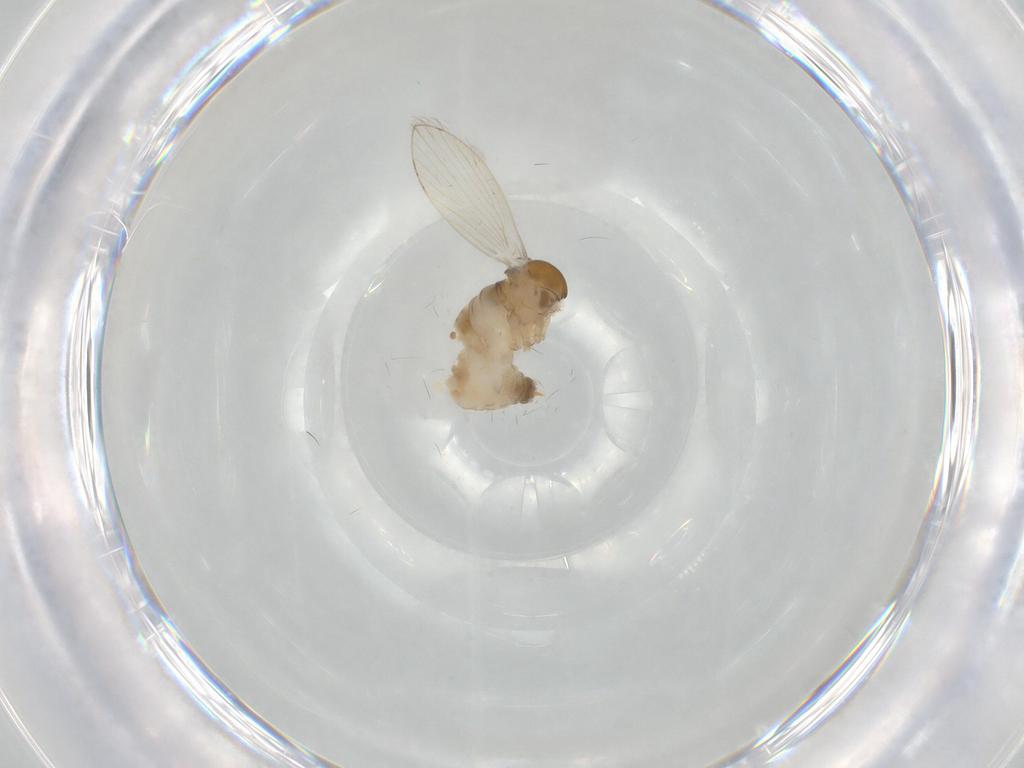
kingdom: Animalia
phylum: Arthropoda
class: Insecta
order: Diptera
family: Psychodidae
